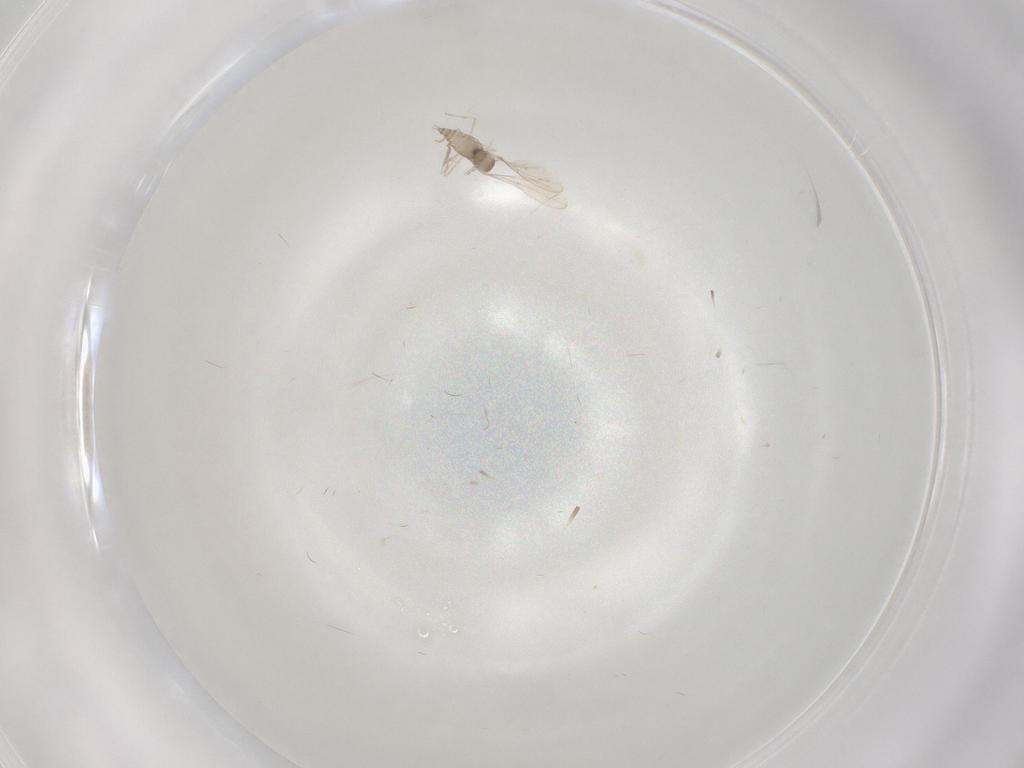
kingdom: Animalia
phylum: Arthropoda
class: Insecta
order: Diptera
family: Cecidomyiidae
